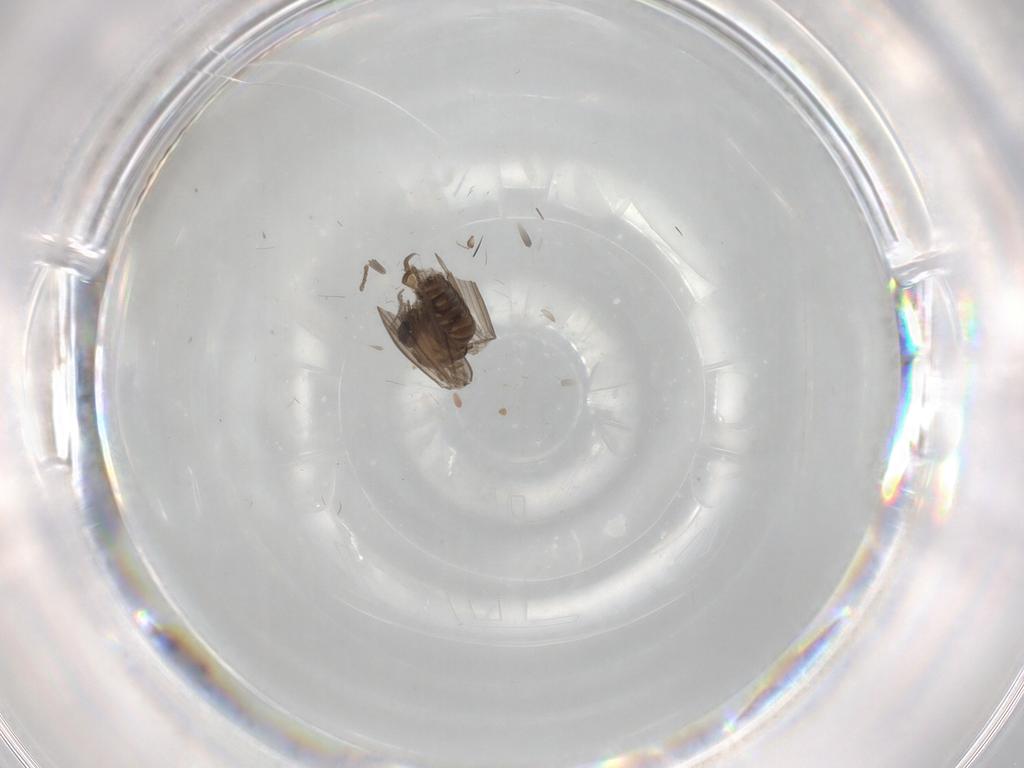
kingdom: Animalia
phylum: Arthropoda
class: Insecta
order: Diptera
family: Psychodidae
